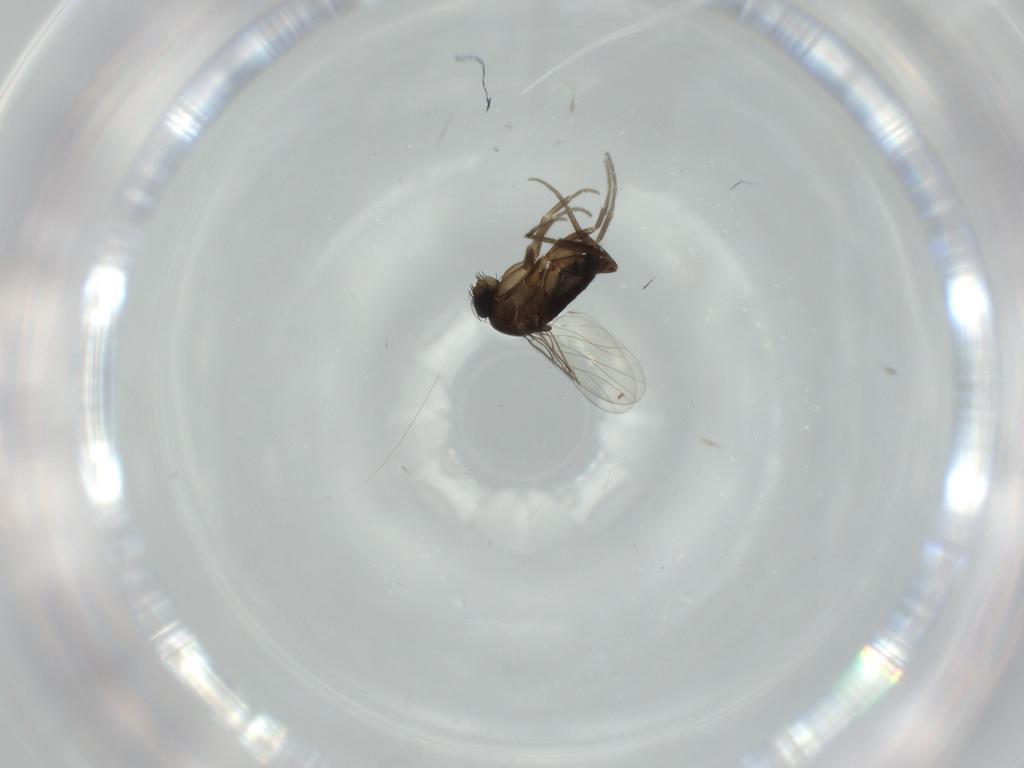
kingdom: Animalia
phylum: Arthropoda
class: Insecta
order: Diptera
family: Phoridae
